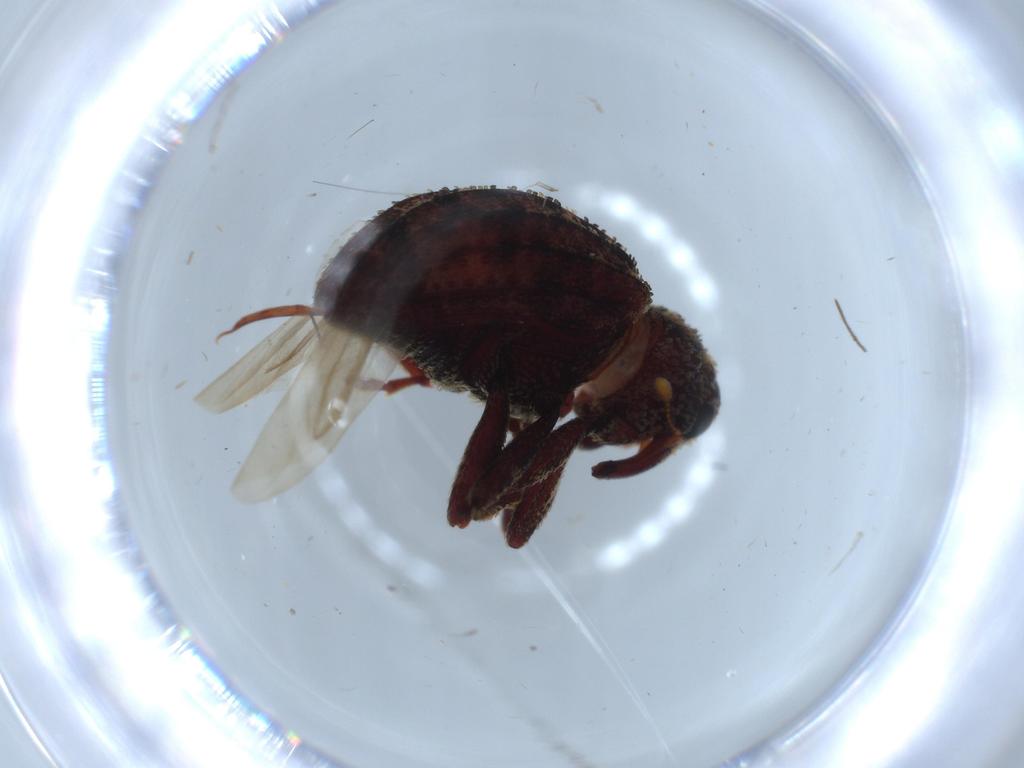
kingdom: Animalia
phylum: Arthropoda
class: Insecta
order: Coleoptera
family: Curculionidae
